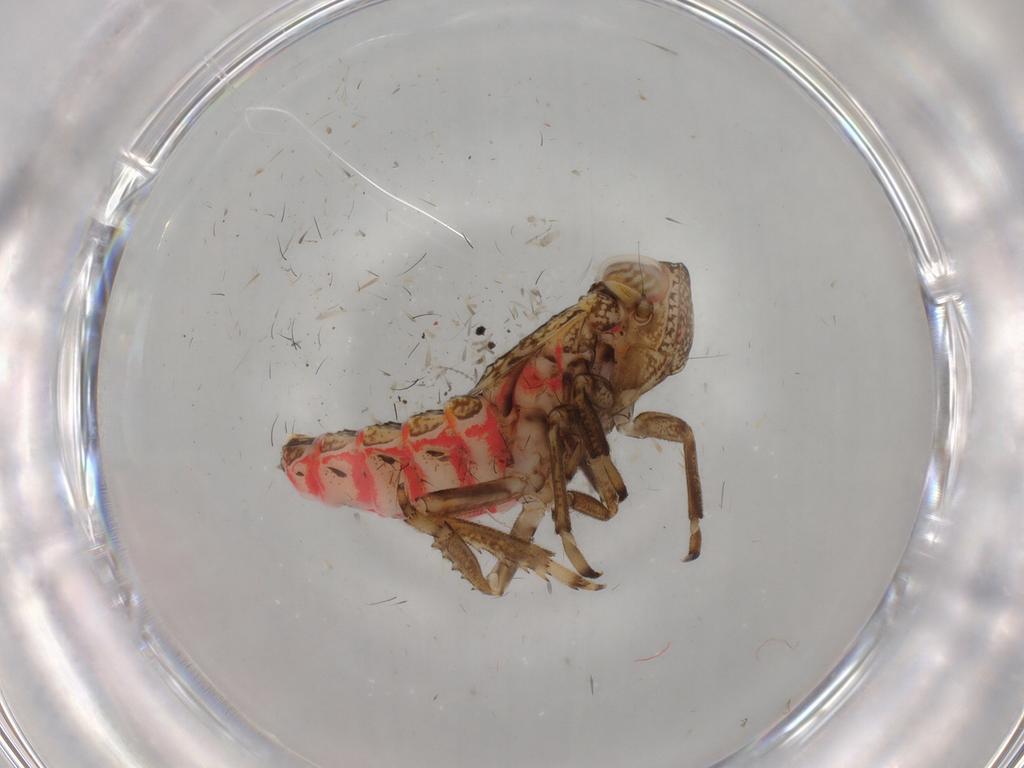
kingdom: Animalia
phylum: Arthropoda
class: Insecta
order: Hemiptera
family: Issidae
